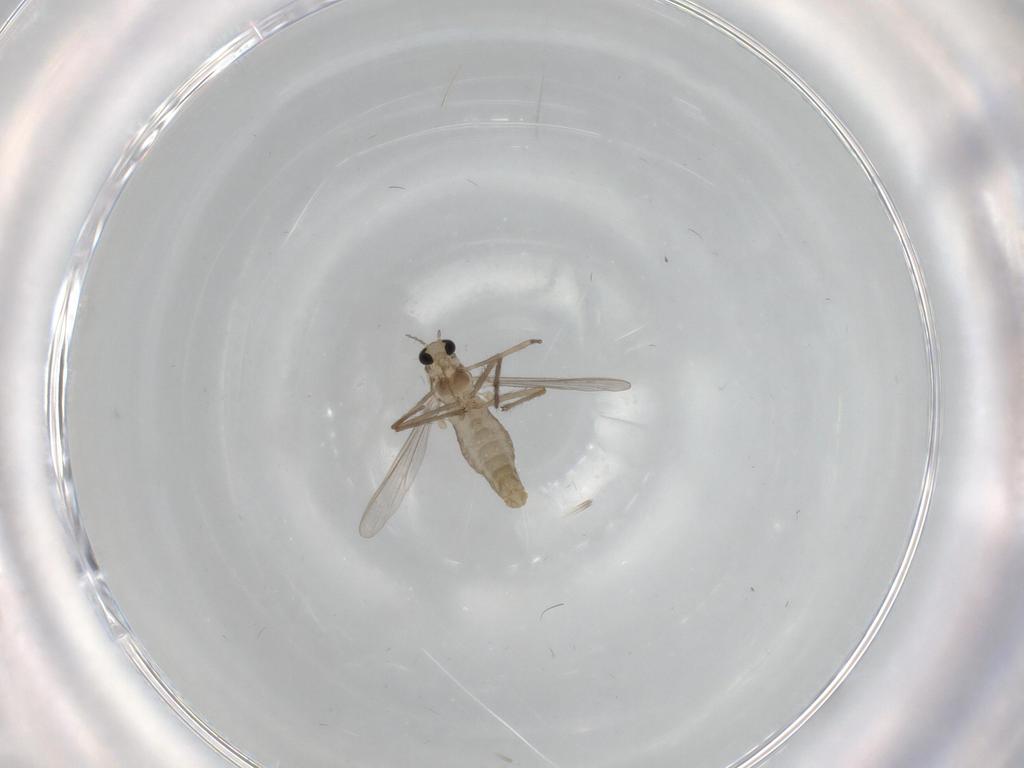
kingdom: Animalia
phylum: Arthropoda
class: Insecta
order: Diptera
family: Chironomidae
